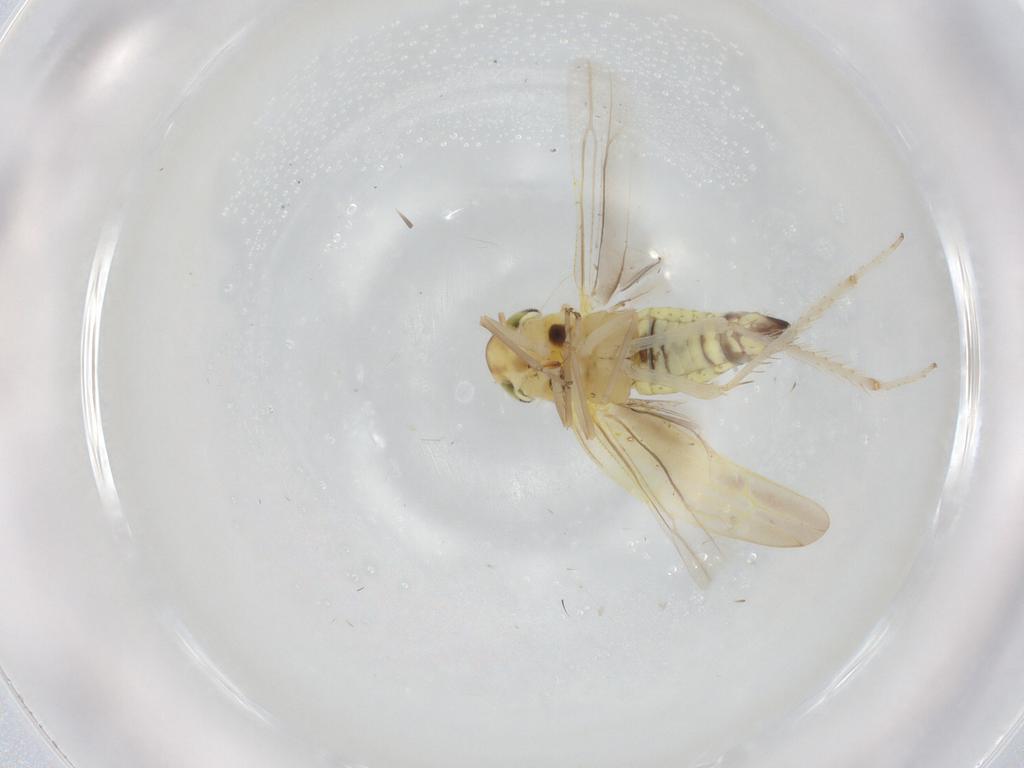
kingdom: Animalia
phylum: Arthropoda
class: Insecta
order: Hemiptera
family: Cicadellidae
